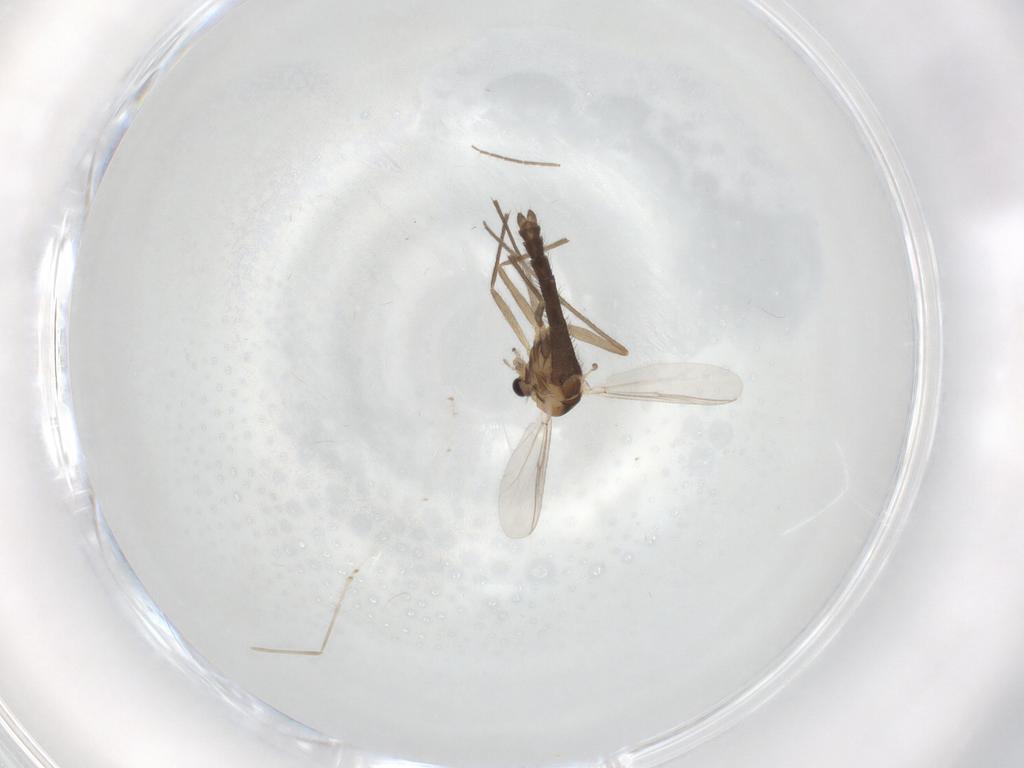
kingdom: Animalia
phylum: Arthropoda
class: Insecta
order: Diptera
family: Chironomidae
